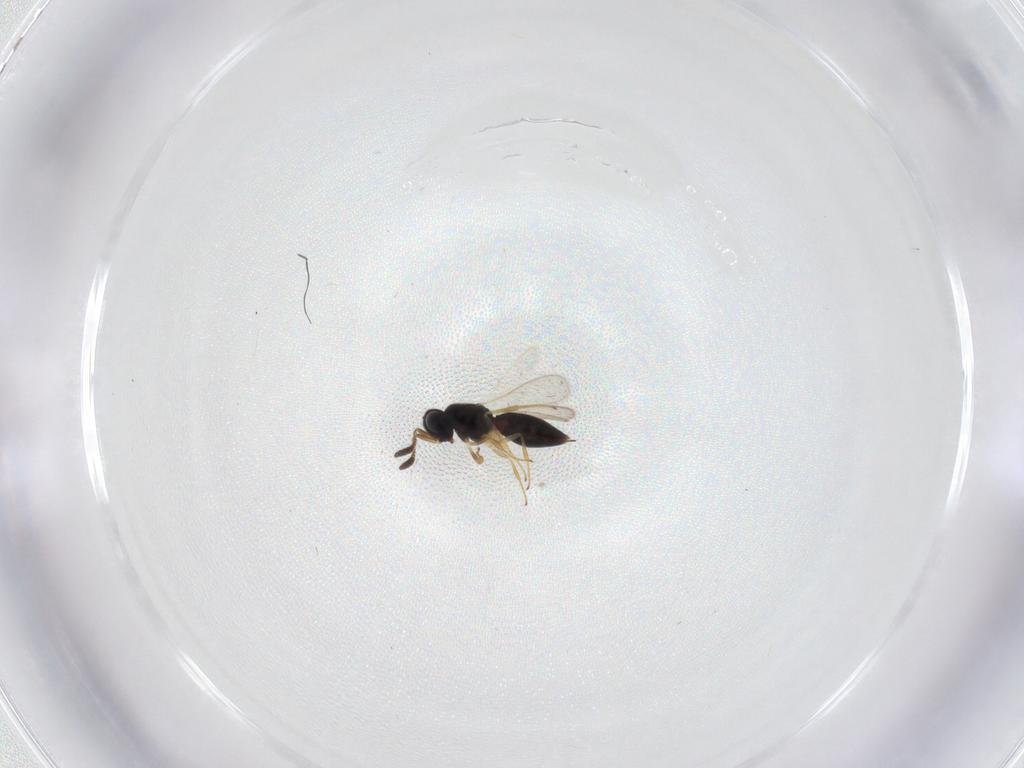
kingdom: Animalia
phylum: Arthropoda
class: Insecta
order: Hymenoptera
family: Scelionidae
